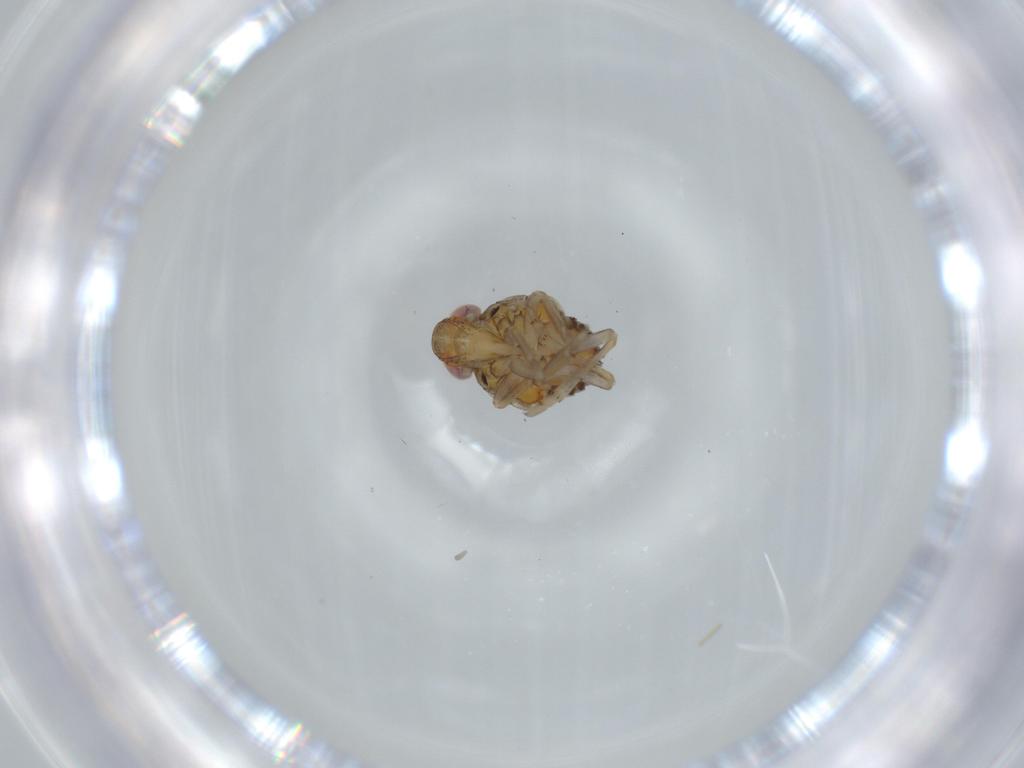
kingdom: Animalia
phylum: Arthropoda
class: Insecta
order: Hemiptera
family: Issidae
